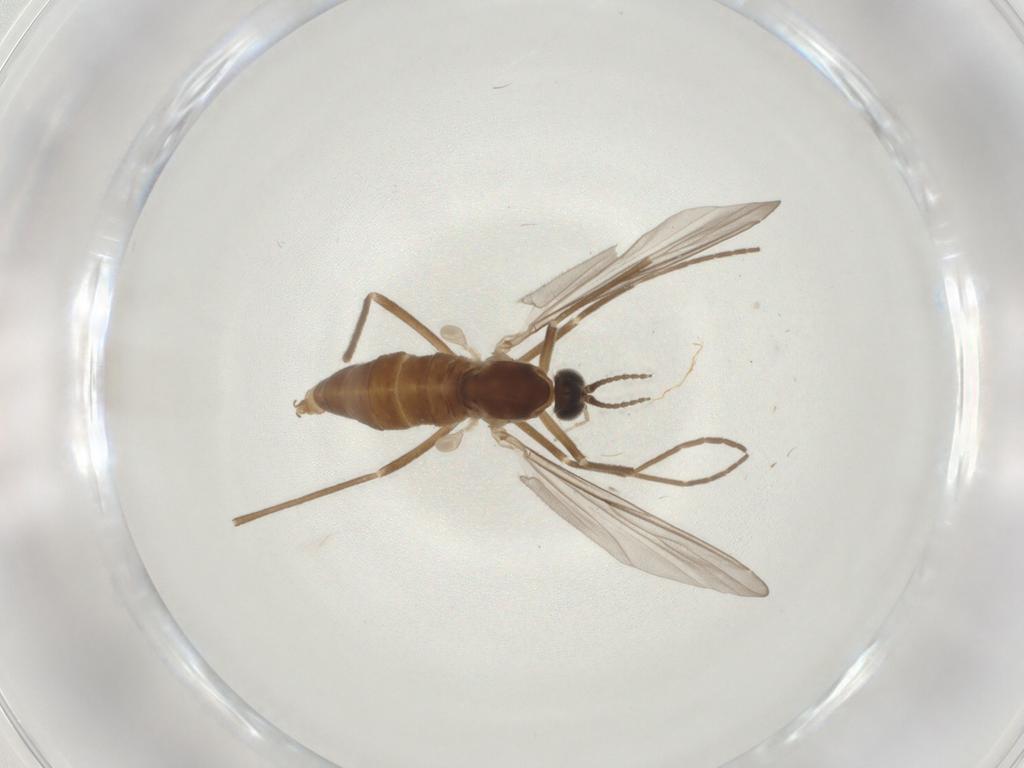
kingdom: Animalia
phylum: Arthropoda
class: Insecta
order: Diptera
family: Cecidomyiidae
